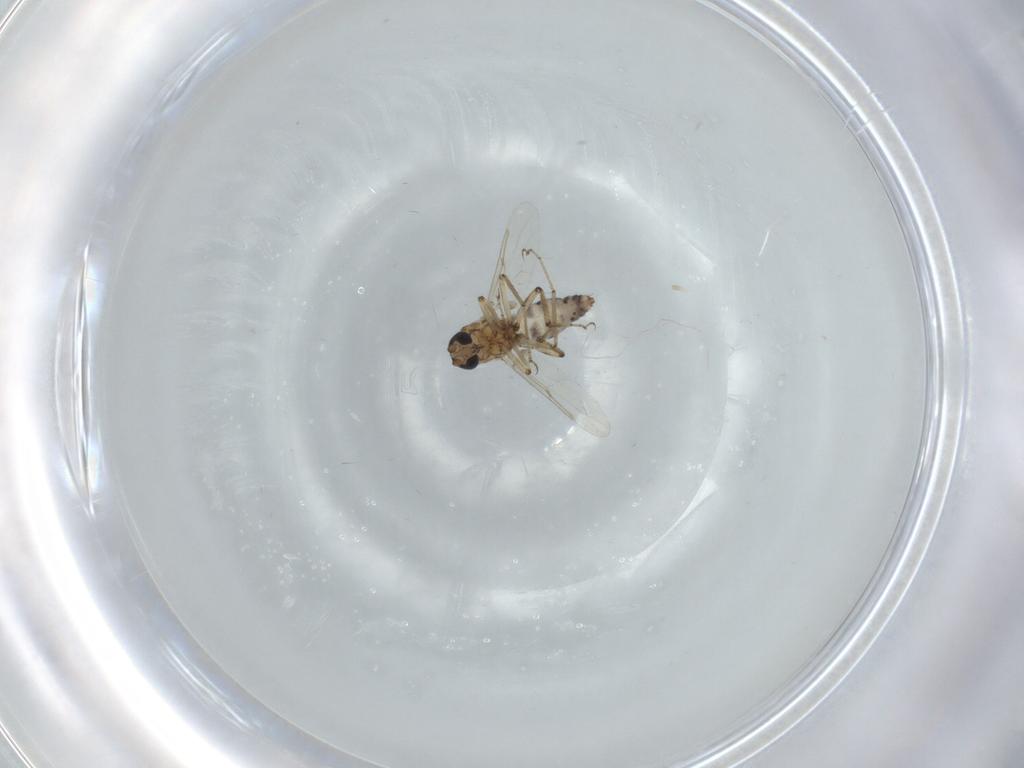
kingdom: Animalia
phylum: Arthropoda
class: Insecta
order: Diptera
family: Ceratopogonidae
